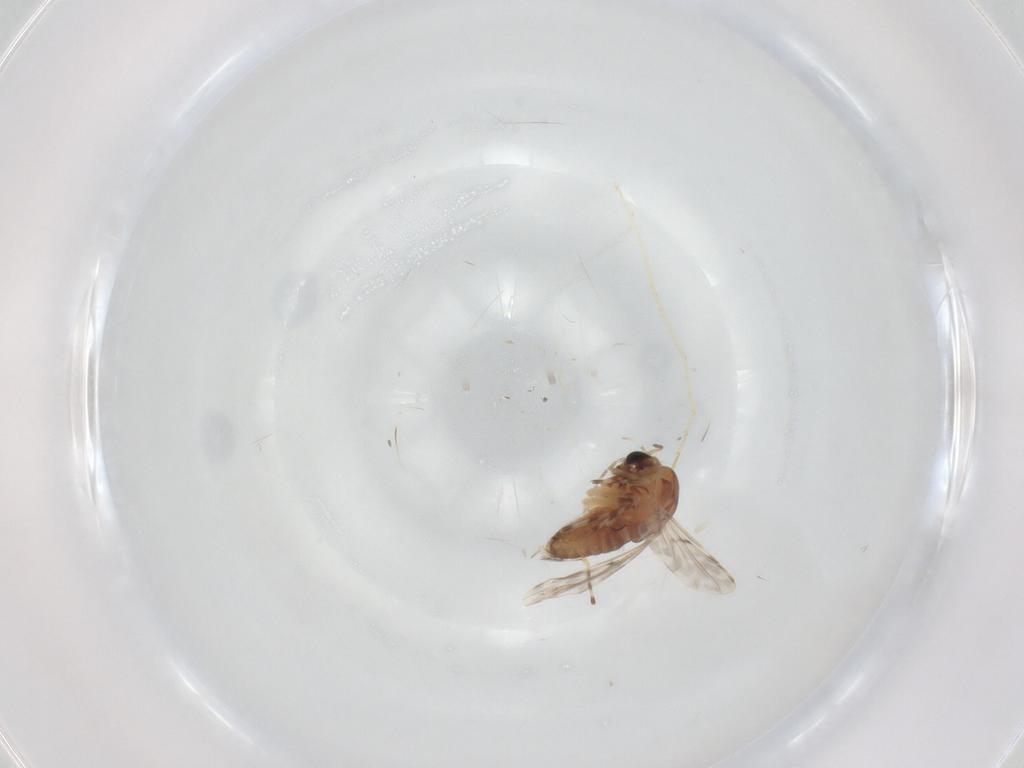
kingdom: Animalia
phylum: Arthropoda
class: Insecta
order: Diptera
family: Chironomidae
